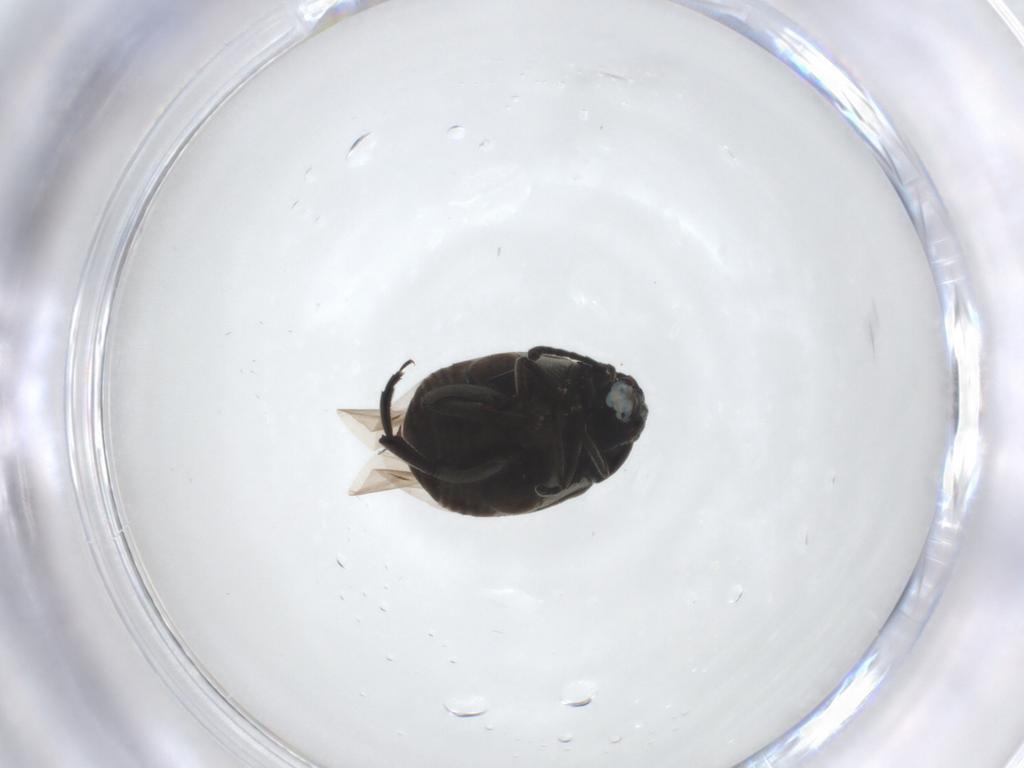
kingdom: Animalia
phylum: Arthropoda
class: Insecta
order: Coleoptera
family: Chrysomelidae
